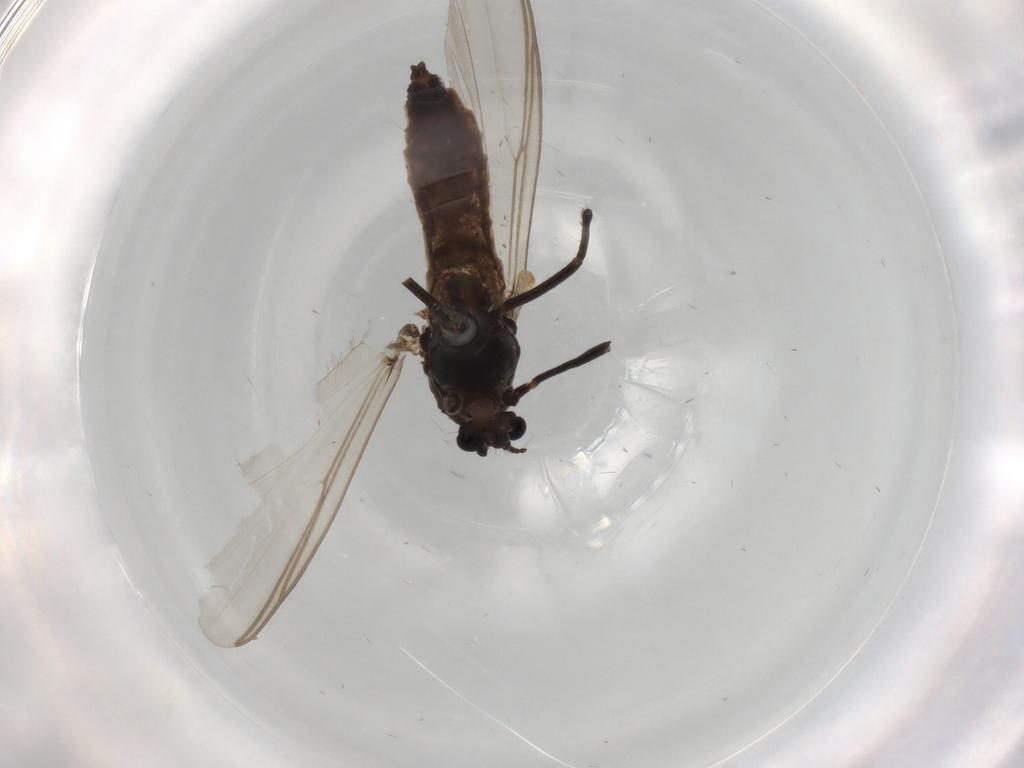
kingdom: Animalia
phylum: Arthropoda
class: Insecta
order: Diptera
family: Chironomidae
